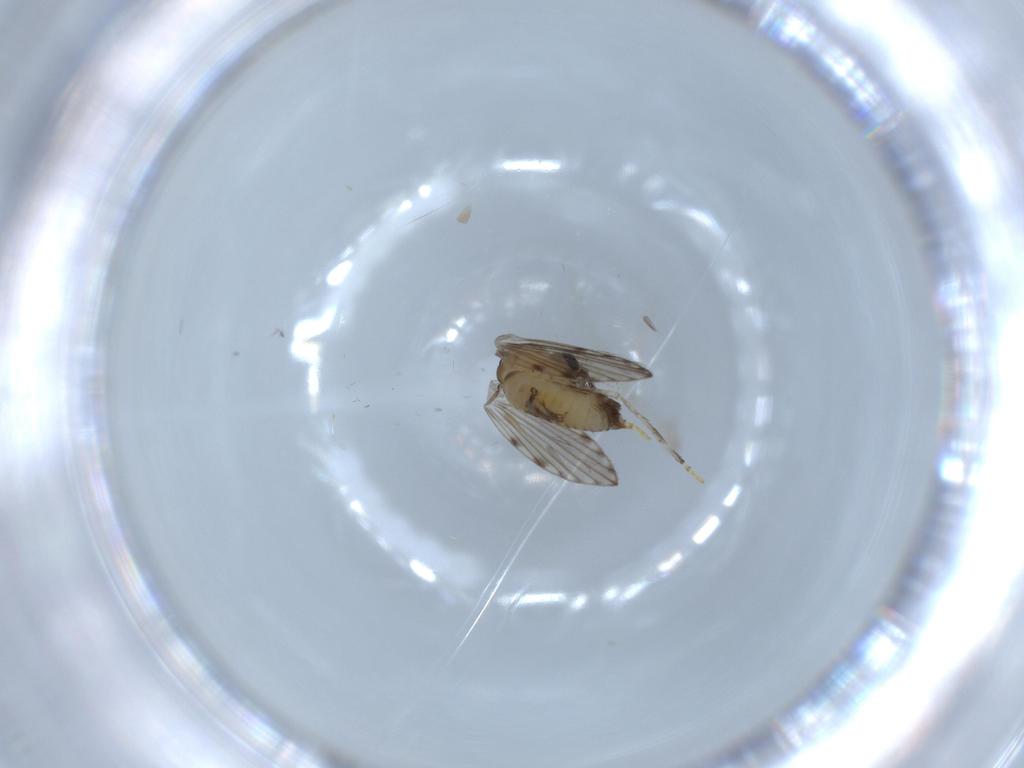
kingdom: Animalia
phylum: Arthropoda
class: Insecta
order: Diptera
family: Psychodidae
